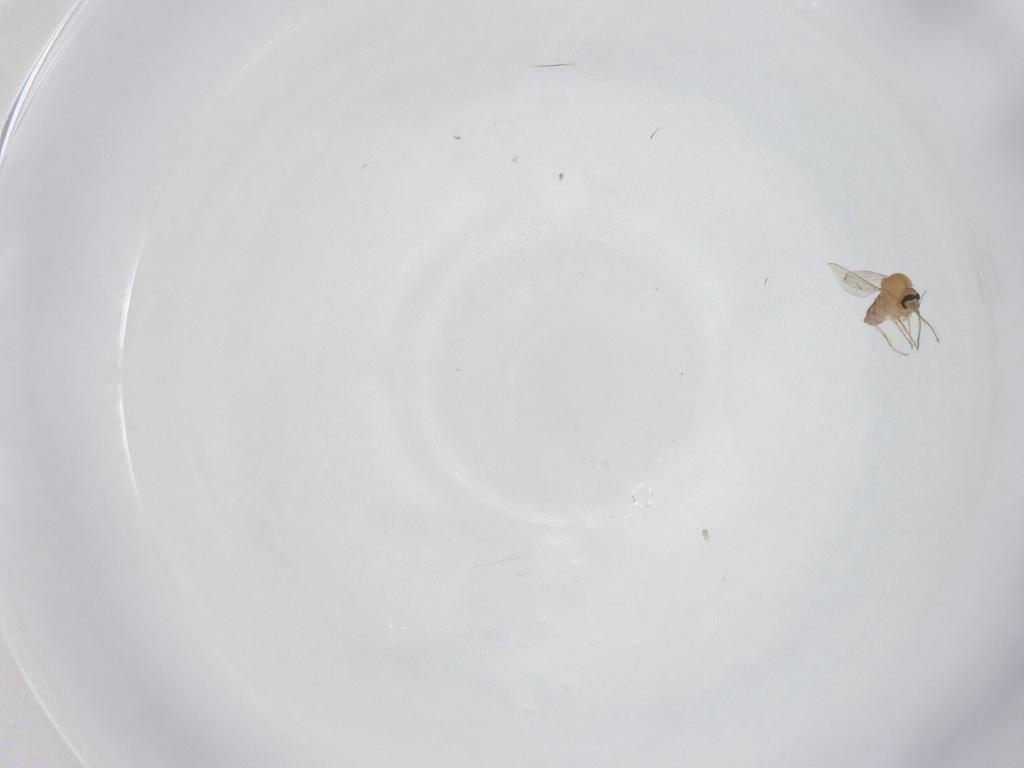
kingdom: Animalia
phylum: Arthropoda
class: Insecta
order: Diptera
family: Ceratopogonidae
